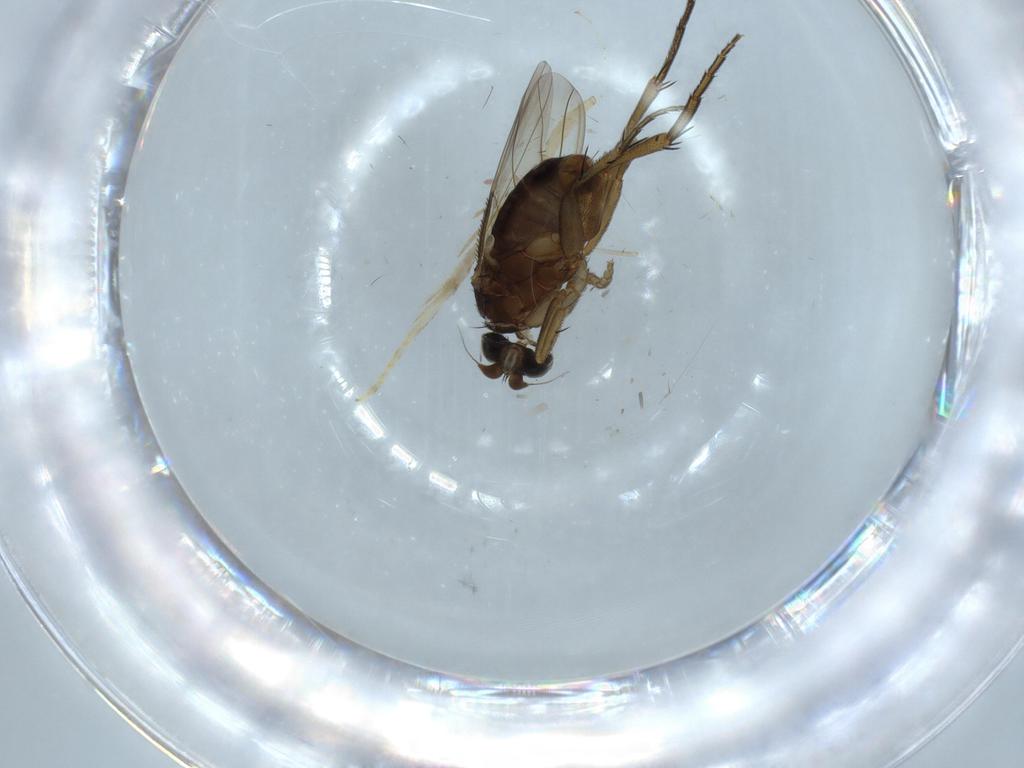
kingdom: Animalia
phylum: Arthropoda
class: Insecta
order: Diptera
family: Phoridae
